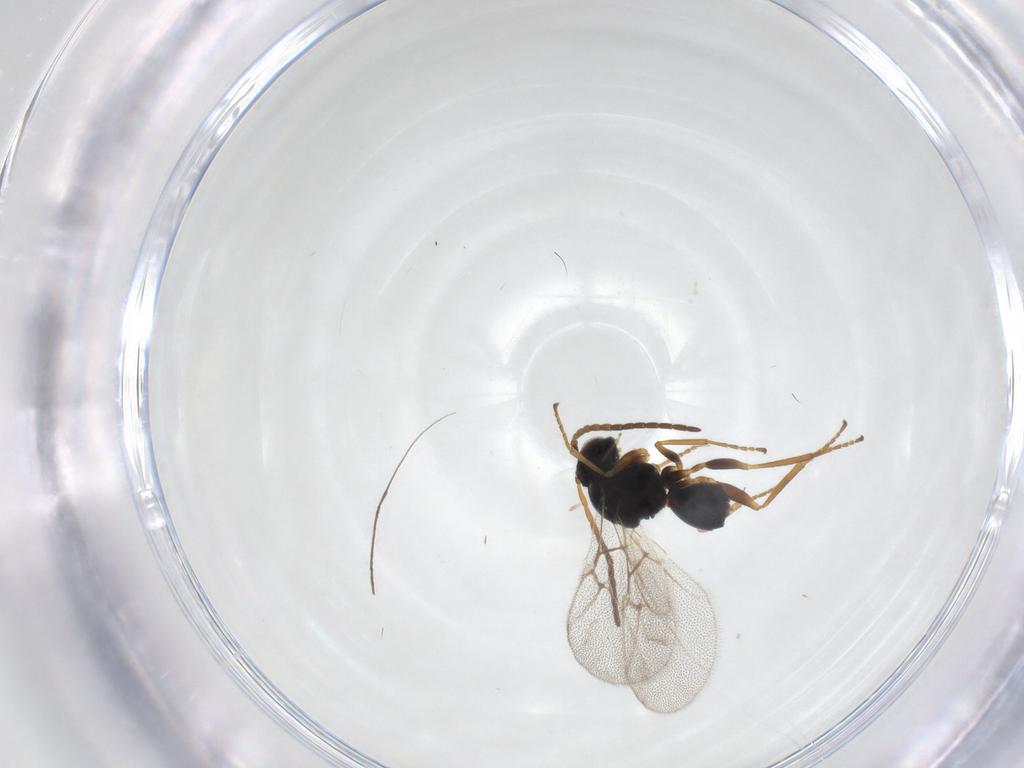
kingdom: Animalia
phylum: Arthropoda
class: Insecta
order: Hymenoptera
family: Cynipidae
